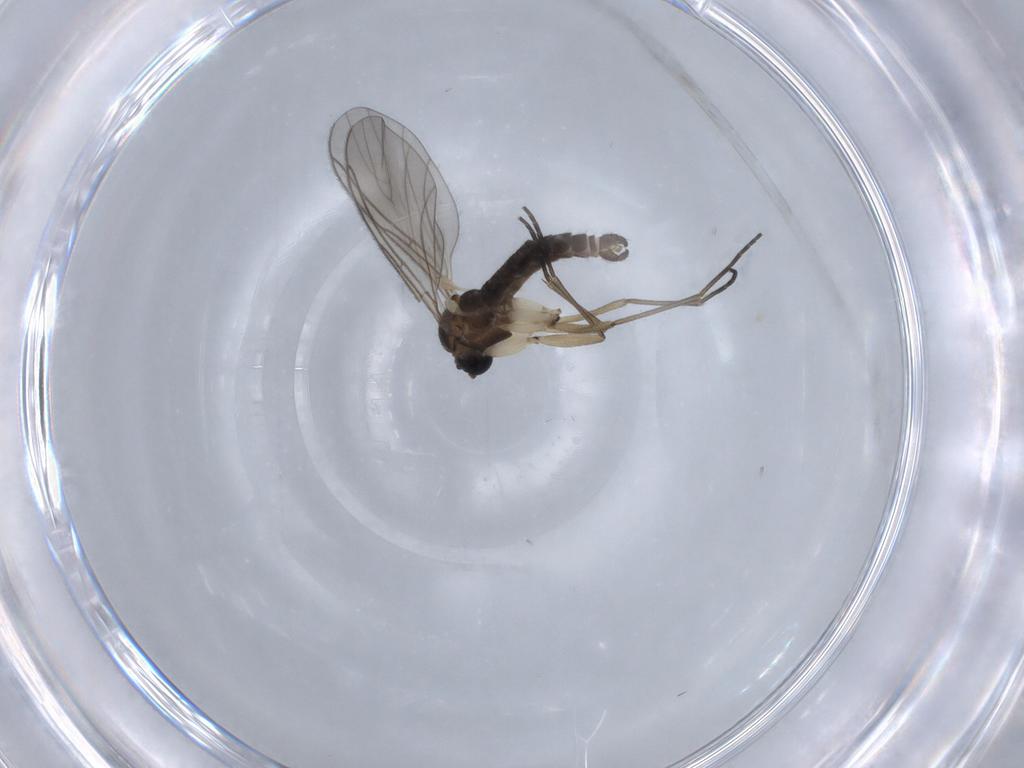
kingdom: Animalia
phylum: Arthropoda
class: Insecta
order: Diptera
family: Sciaridae
